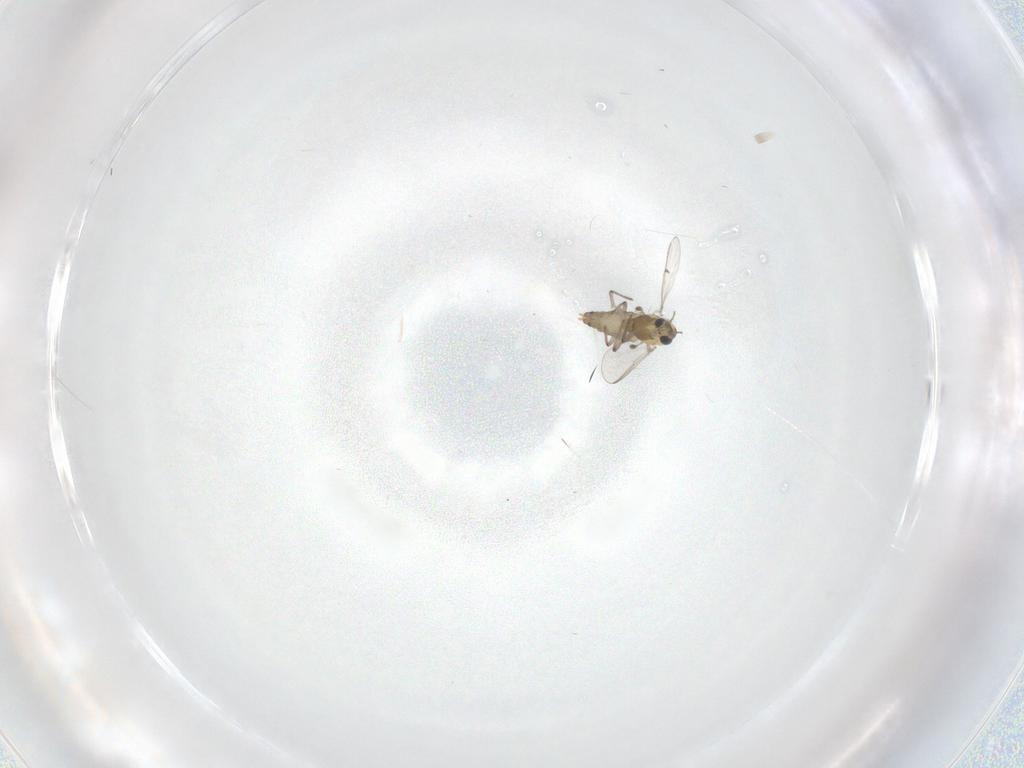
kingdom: Animalia
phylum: Arthropoda
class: Insecta
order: Diptera
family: Chironomidae
